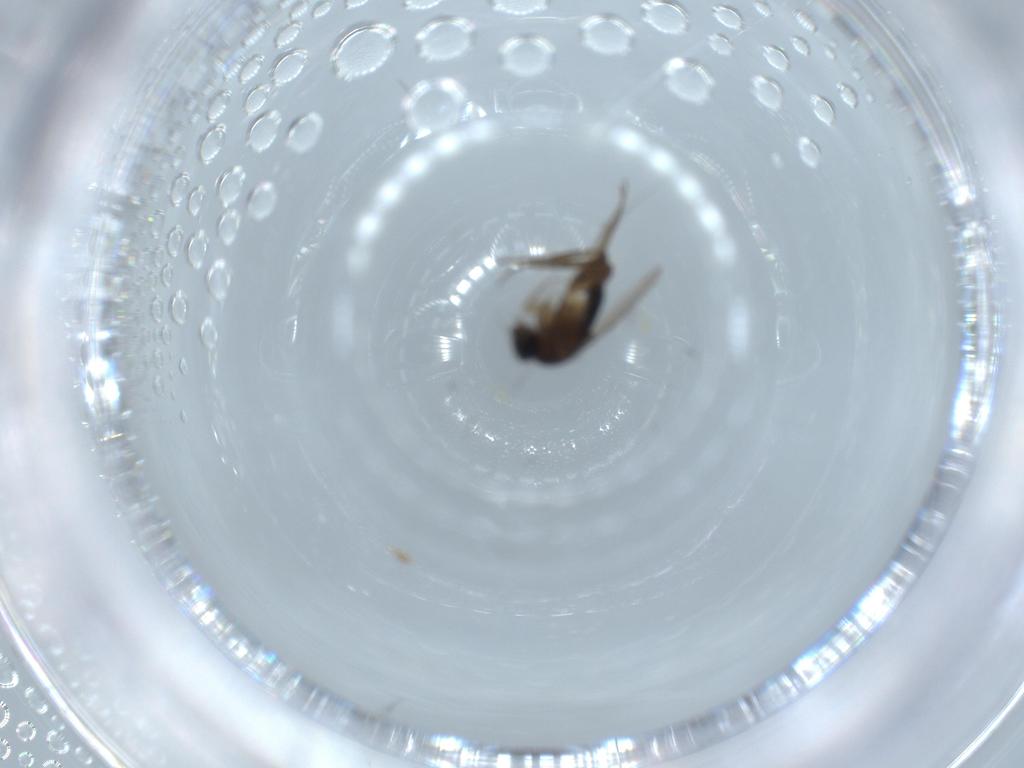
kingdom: Animalia
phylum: Arthropoda
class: Insecta
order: Diptera
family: Phoridae
